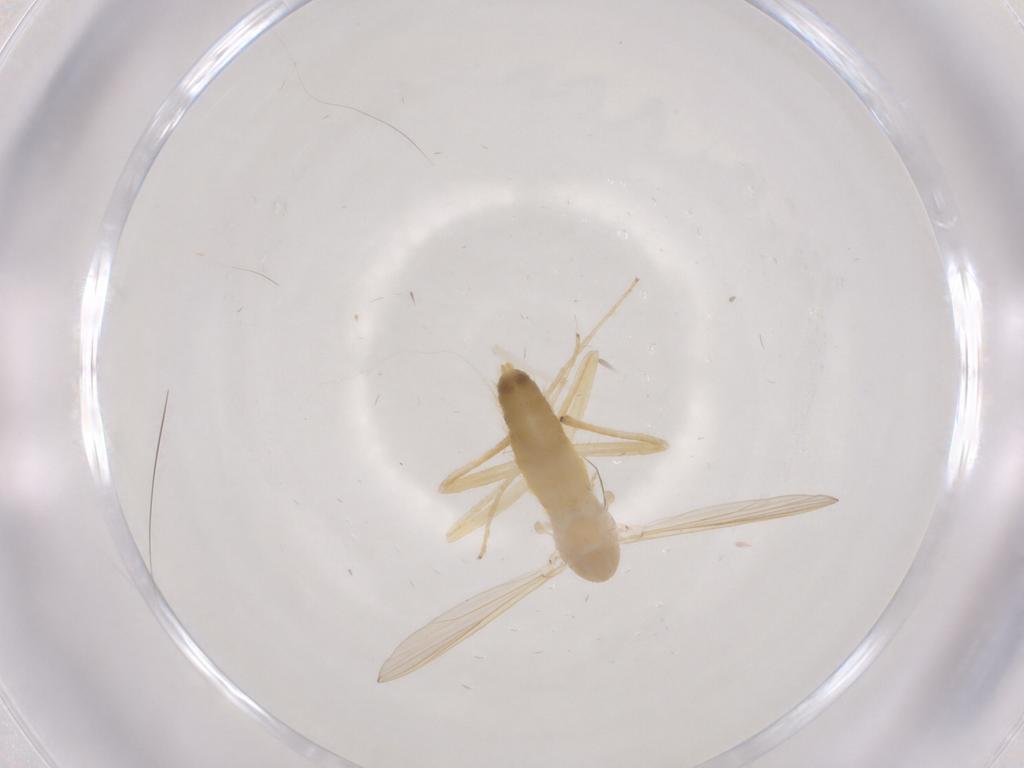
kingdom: Animalia
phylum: Arthropoda
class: Insecta
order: Diptera
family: Chironomidae
